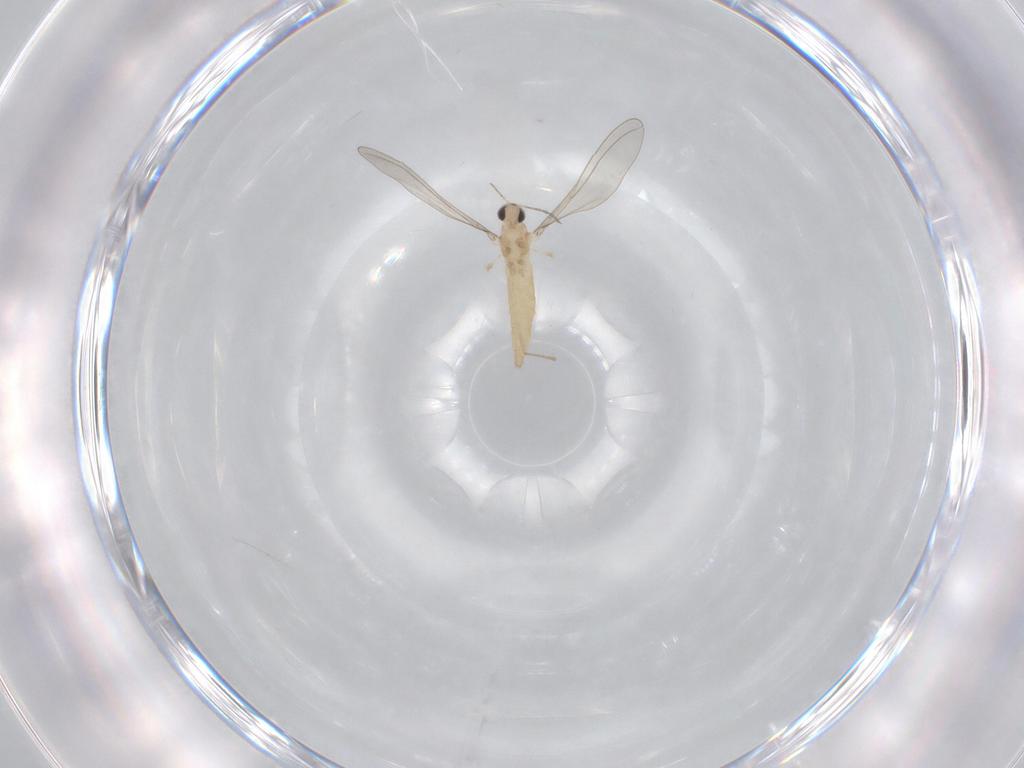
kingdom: Animalia
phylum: Arthropoda
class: Insecta
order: Diptera
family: Cecidomyiidae
